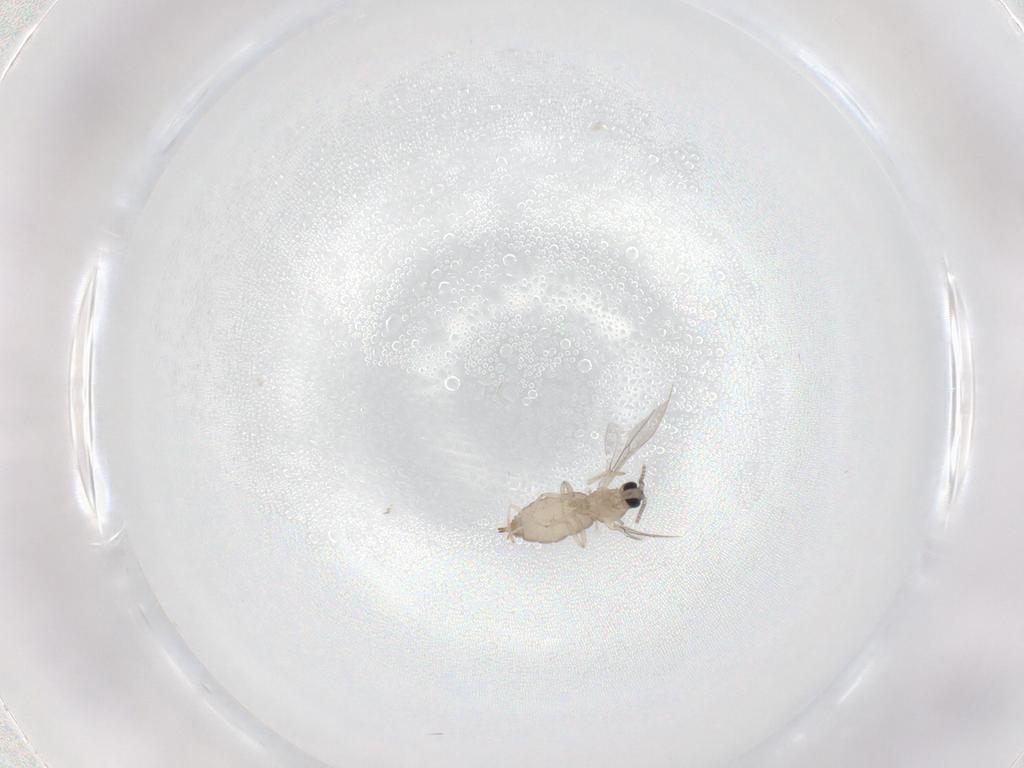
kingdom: Animalia
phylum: Arthropoda
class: Insecta
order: Diptera
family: Cecidomyiidae
